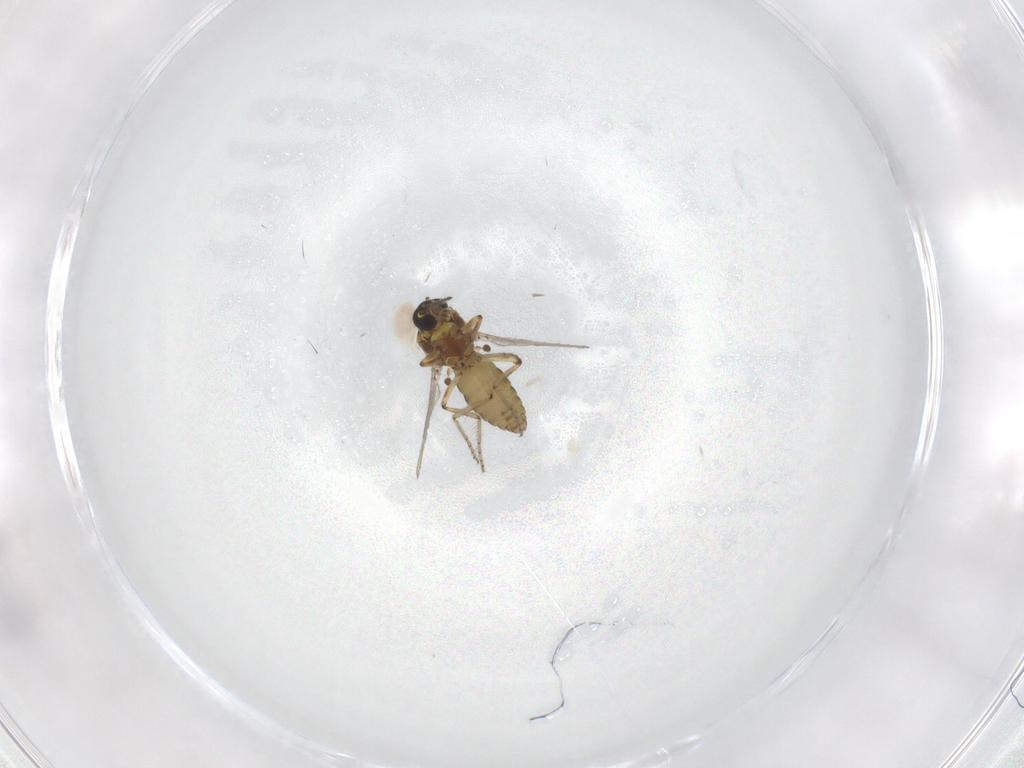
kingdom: Animalia
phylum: Arthropoda
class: Insecta
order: Diptera
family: Ceratopogonidae
